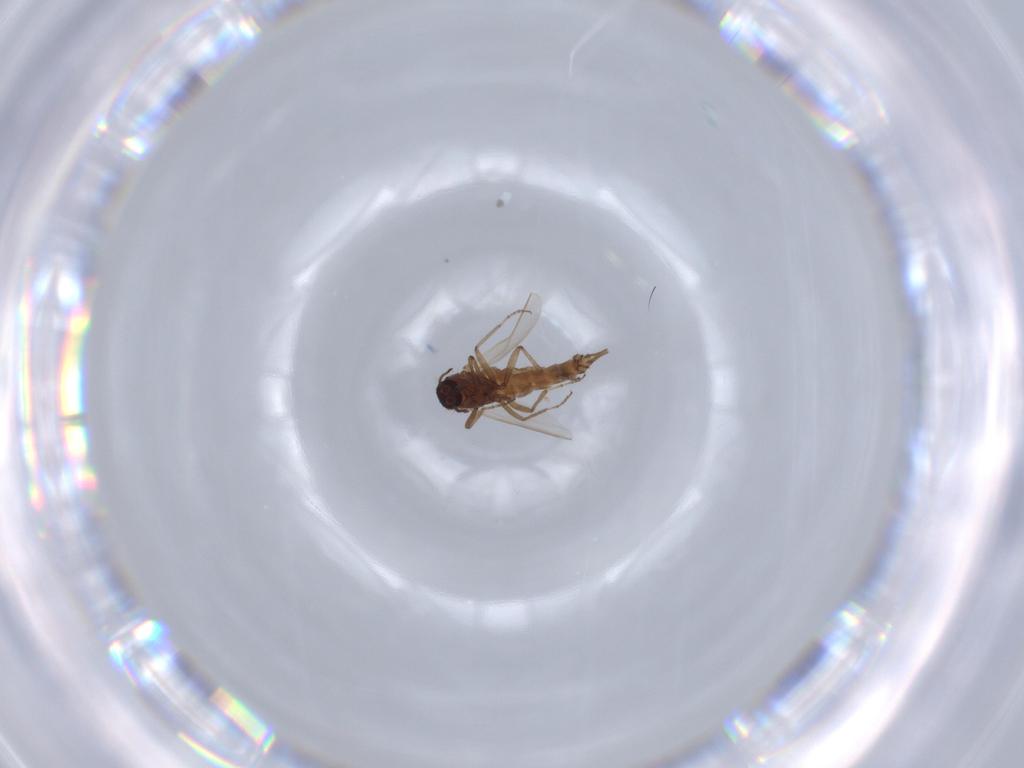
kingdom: Animalia
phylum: Arthropoda
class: Insecta
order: Diptera
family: Ceratopogonidae
